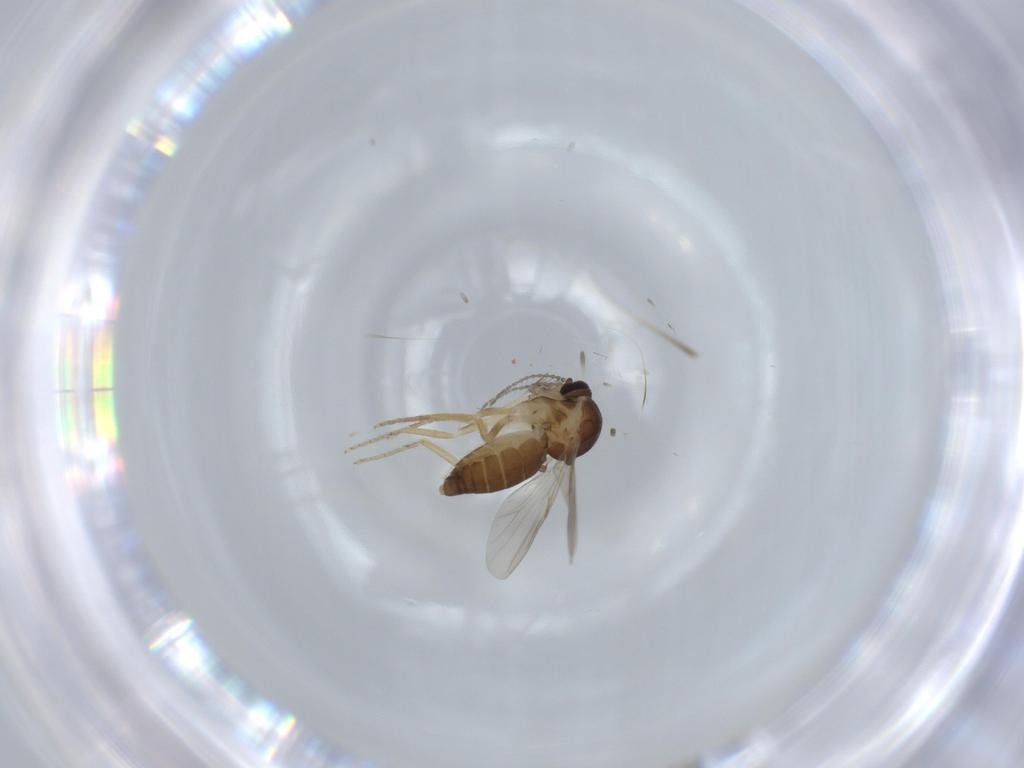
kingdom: Animalia
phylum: Arthropoda
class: Insecta
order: Diptera
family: Ceratopogonidae
